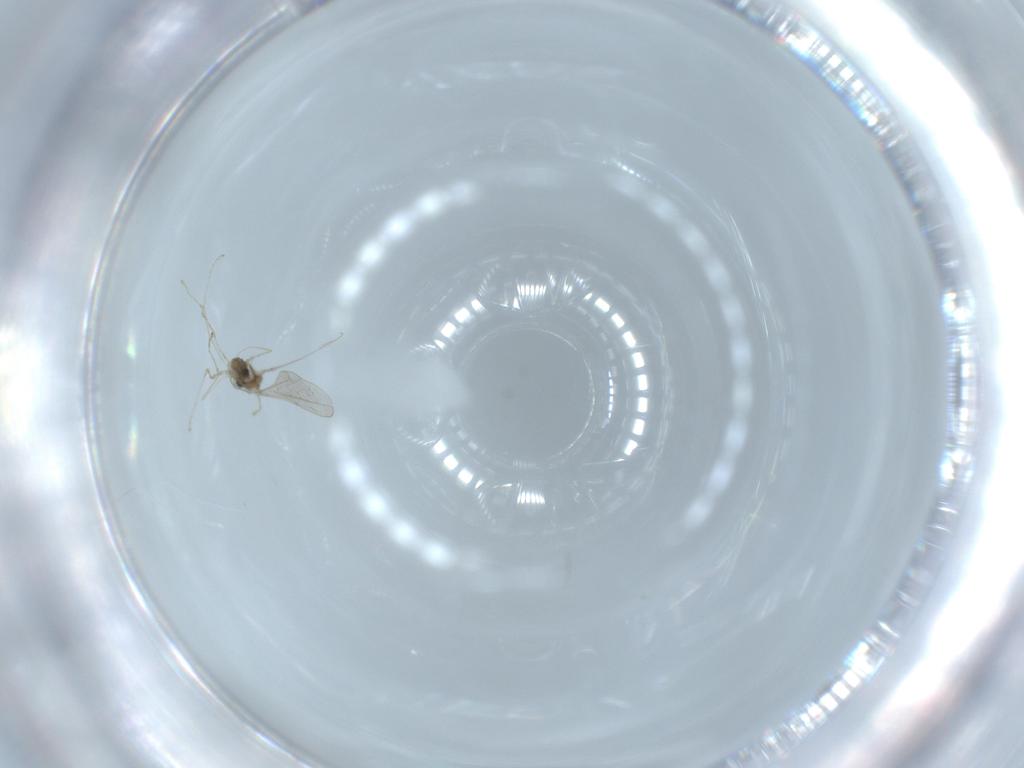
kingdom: Animalia
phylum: Arthropoda
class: Insecta
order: Diptera
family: Cecidomyiidae
